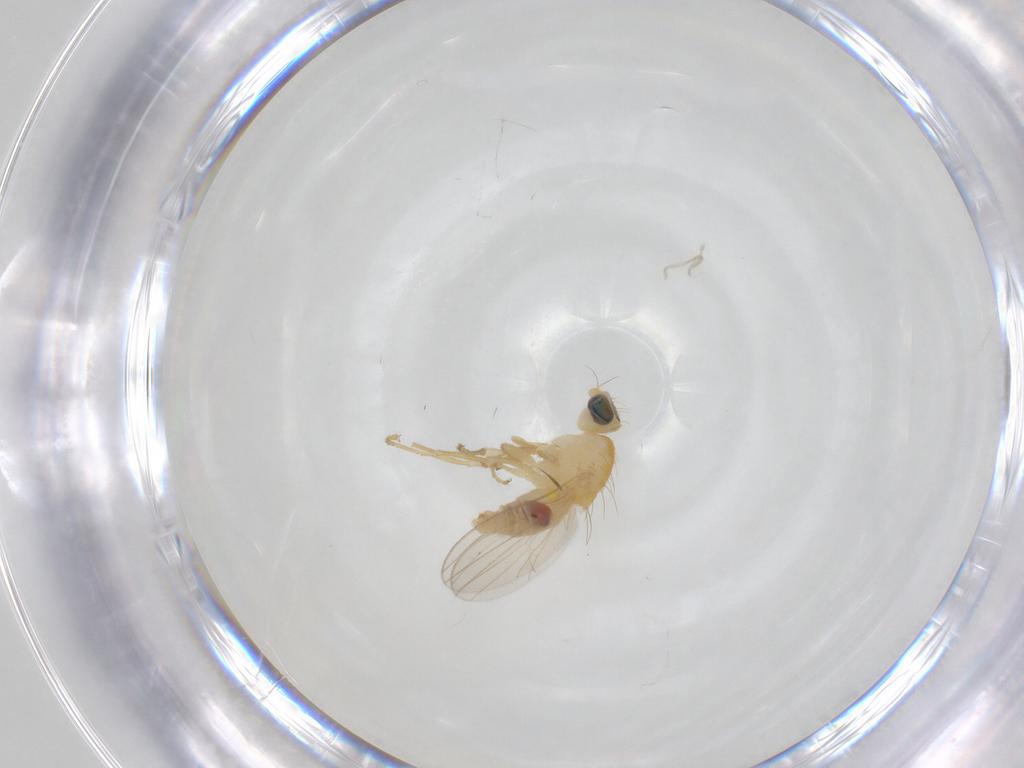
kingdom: Animalia
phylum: Arthropoda
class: Insecta
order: Diptera
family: Chyromyidae
